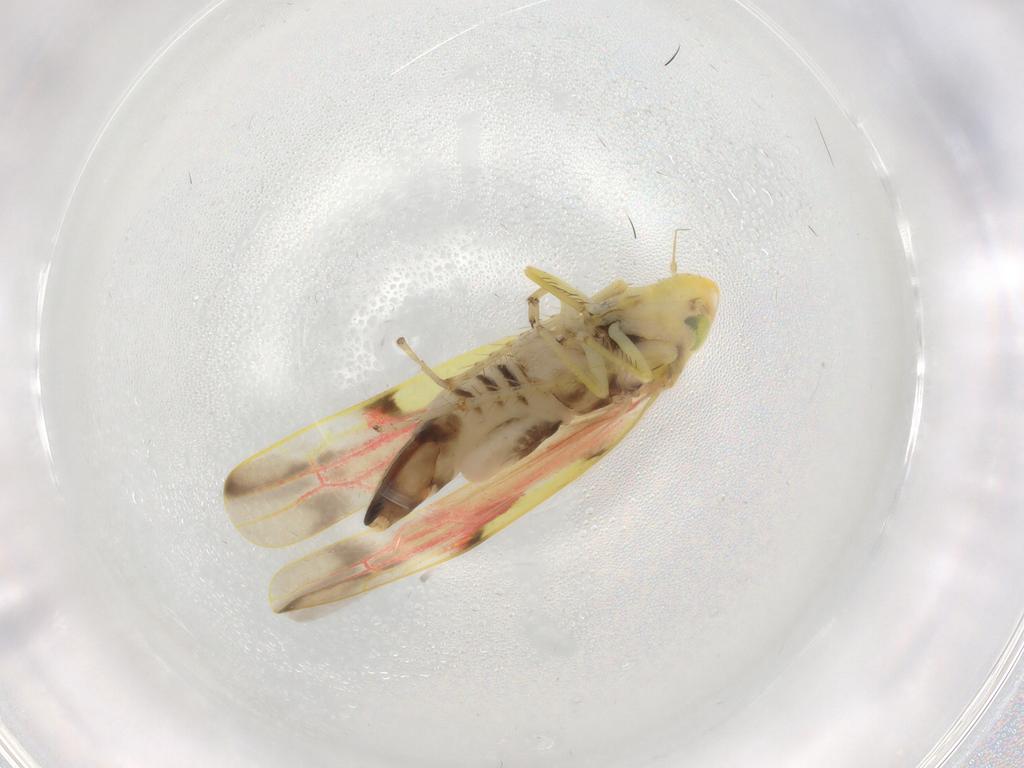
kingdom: Animalia
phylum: Arthropoda
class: Insecta
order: Hemiptera
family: Cicadellidae
